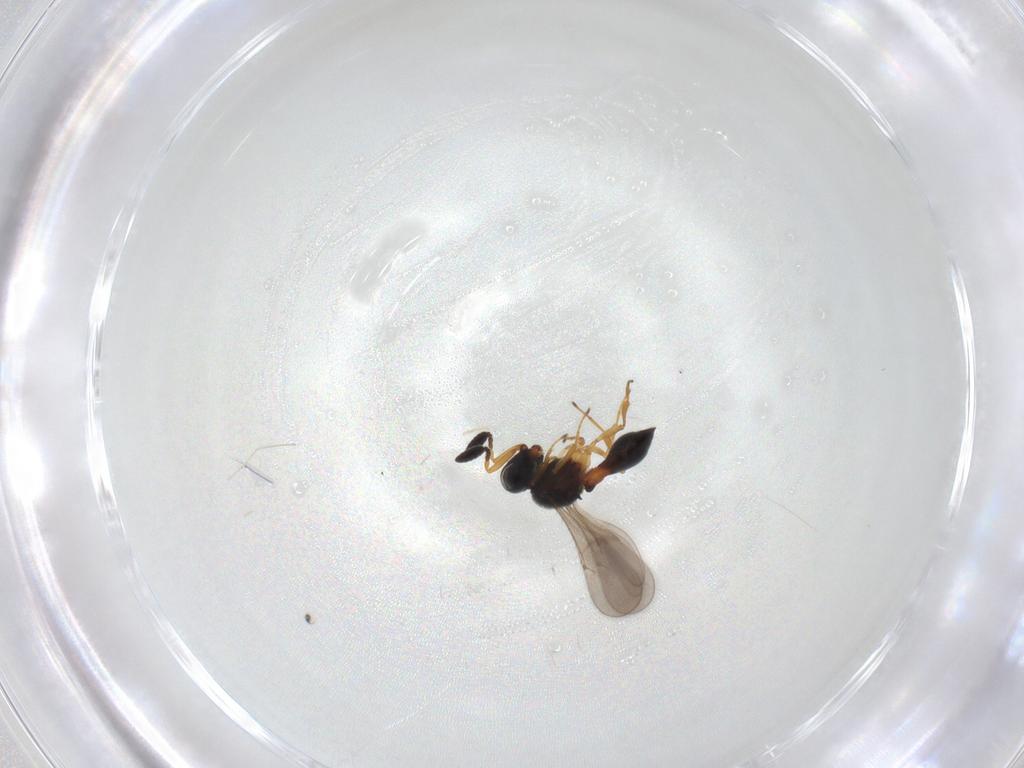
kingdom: Animalia
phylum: Arthropoda
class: Insecta
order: Hymenoptera
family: Scelionidae
